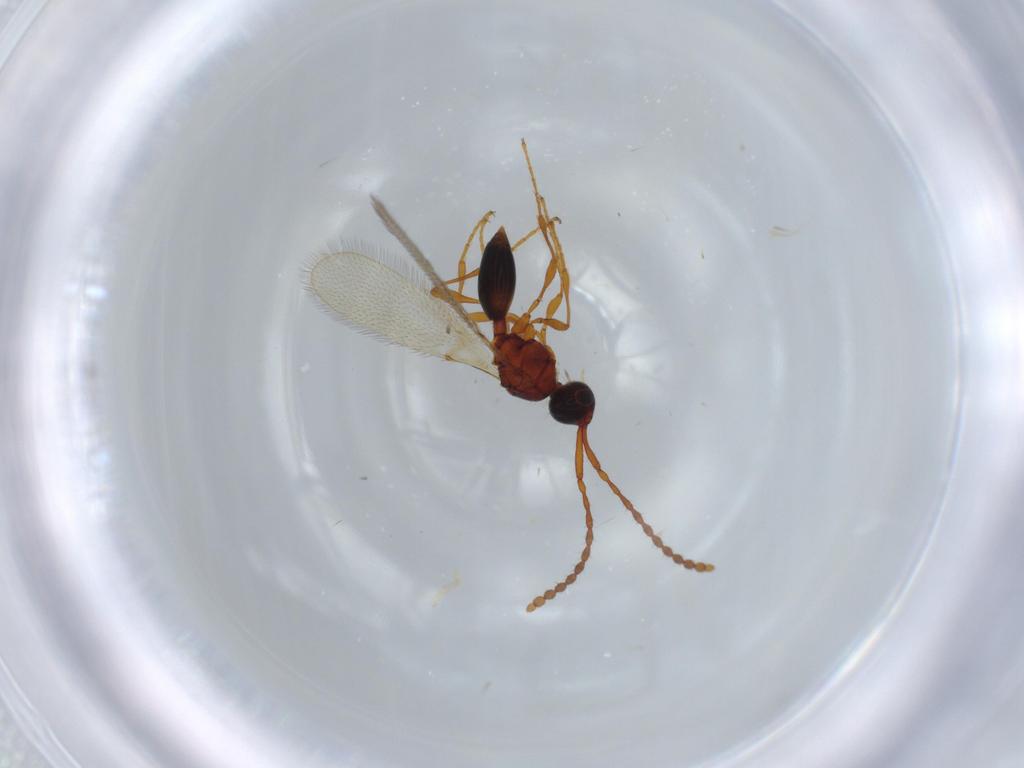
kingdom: Animalia
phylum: Arthropoda
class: Insecta
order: Hymenoptera
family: Diapriidae
